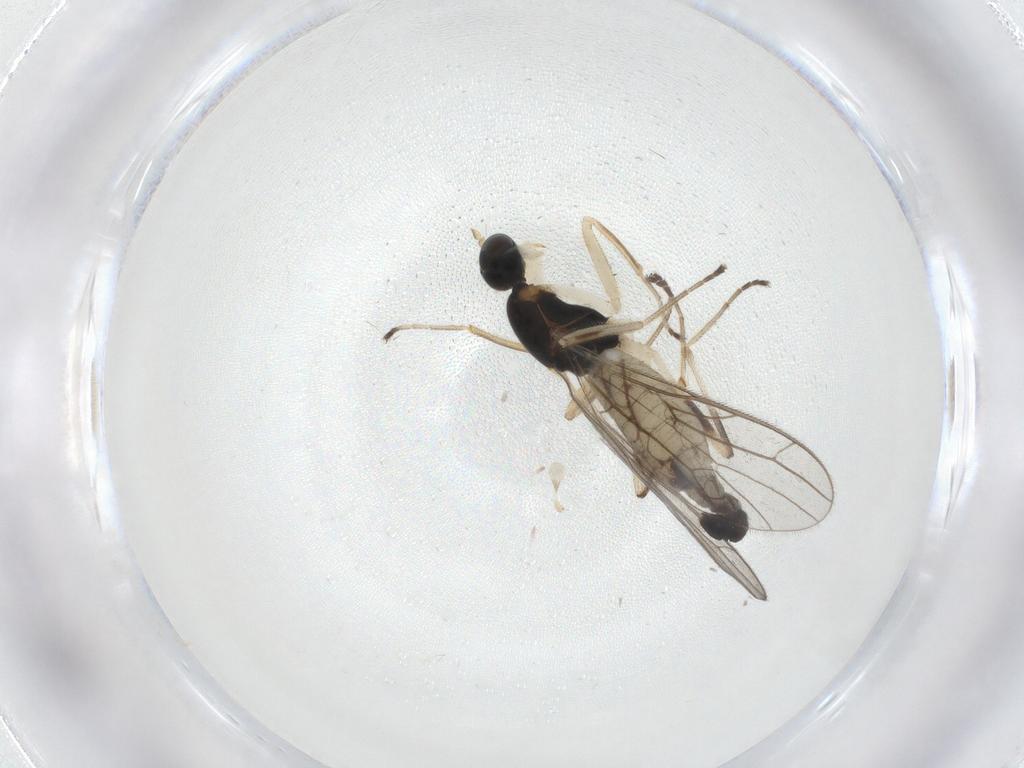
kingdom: Animalia
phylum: Arthropoda
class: Insecta
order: Diptera
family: Empididae
